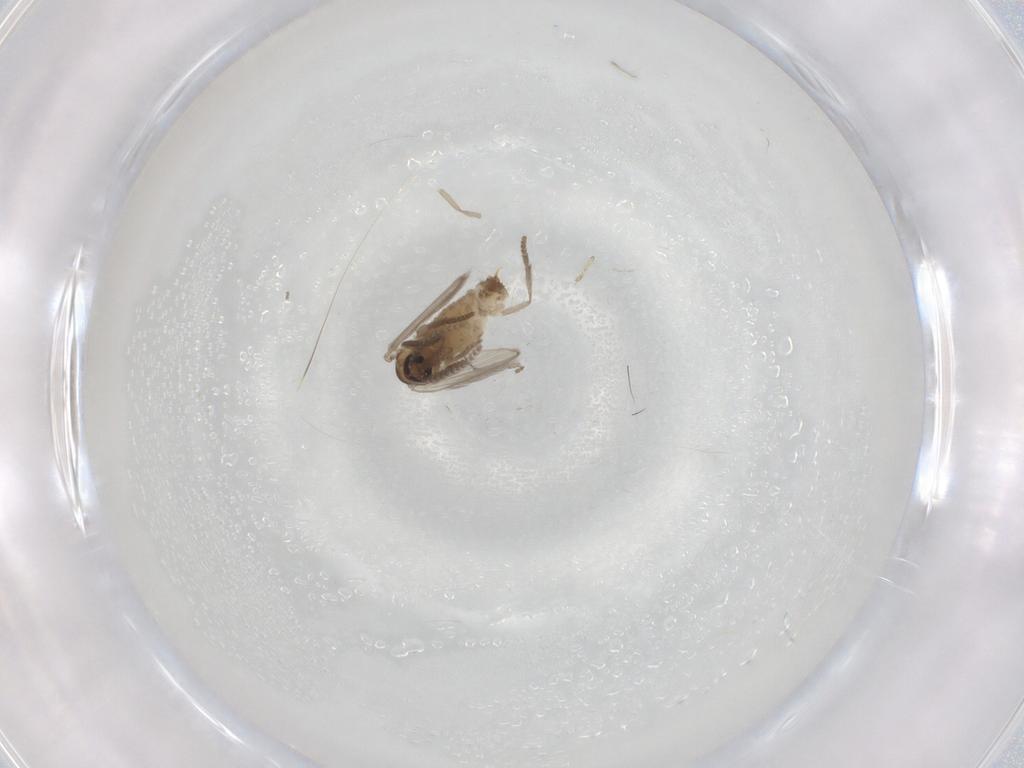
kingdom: Animalia
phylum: Arthropoda
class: Insecta
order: Diptera
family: Psychodidae
